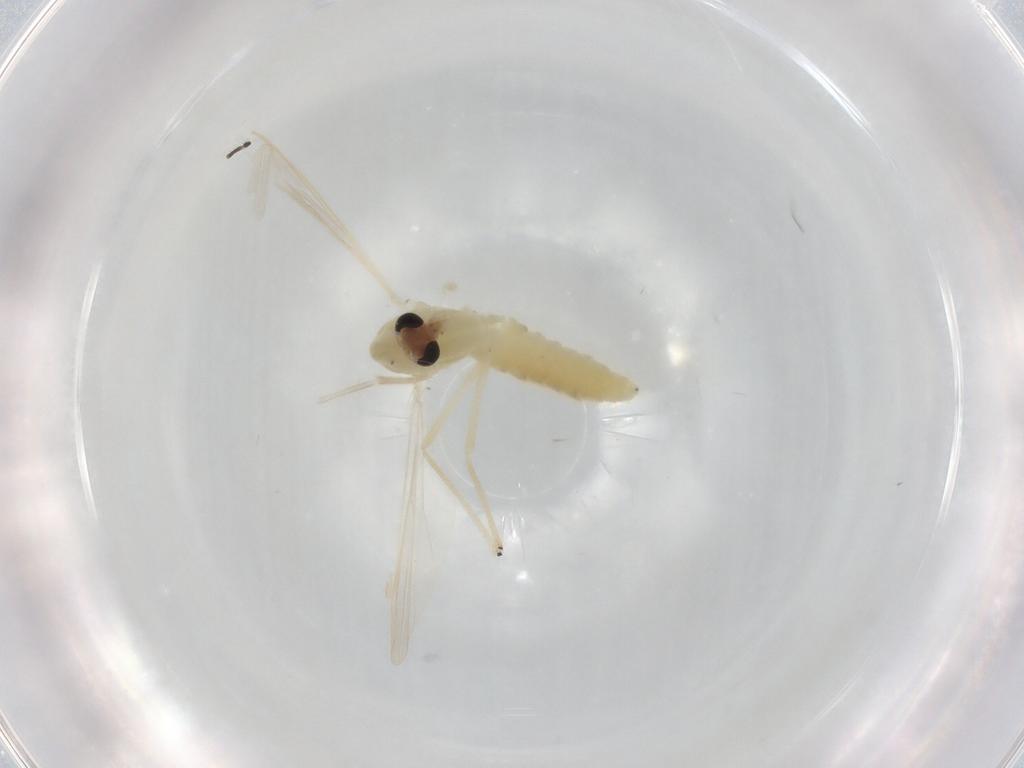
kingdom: Animalia
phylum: Arthropoda
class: Insecta
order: Diptera
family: Chironomidae
